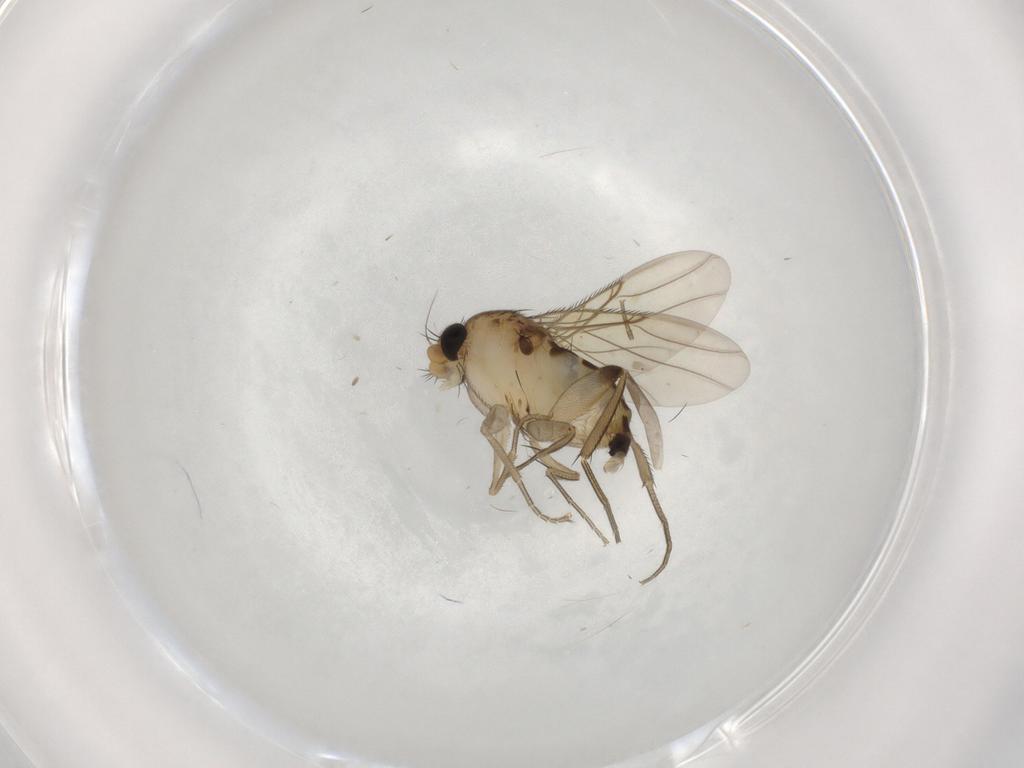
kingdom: Animalia
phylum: Arthropoda
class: Insecta
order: Diptera
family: Phoridae
